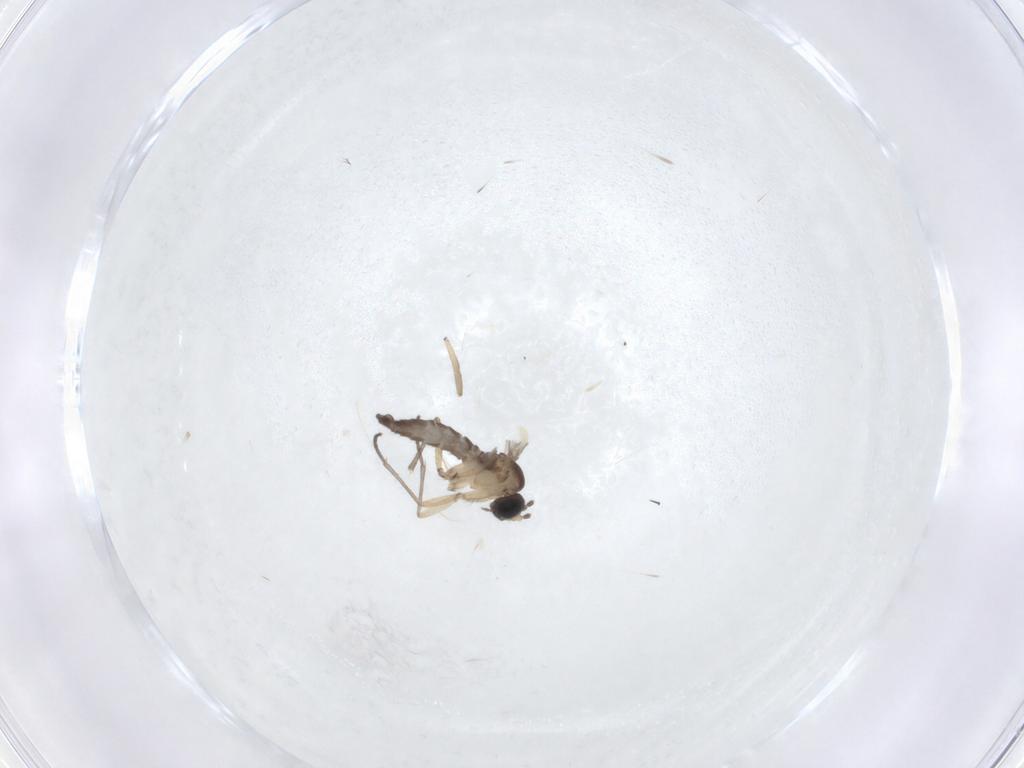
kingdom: Animalia
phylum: Arthropoda
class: Insecta
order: Diptera
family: Sciaridae
